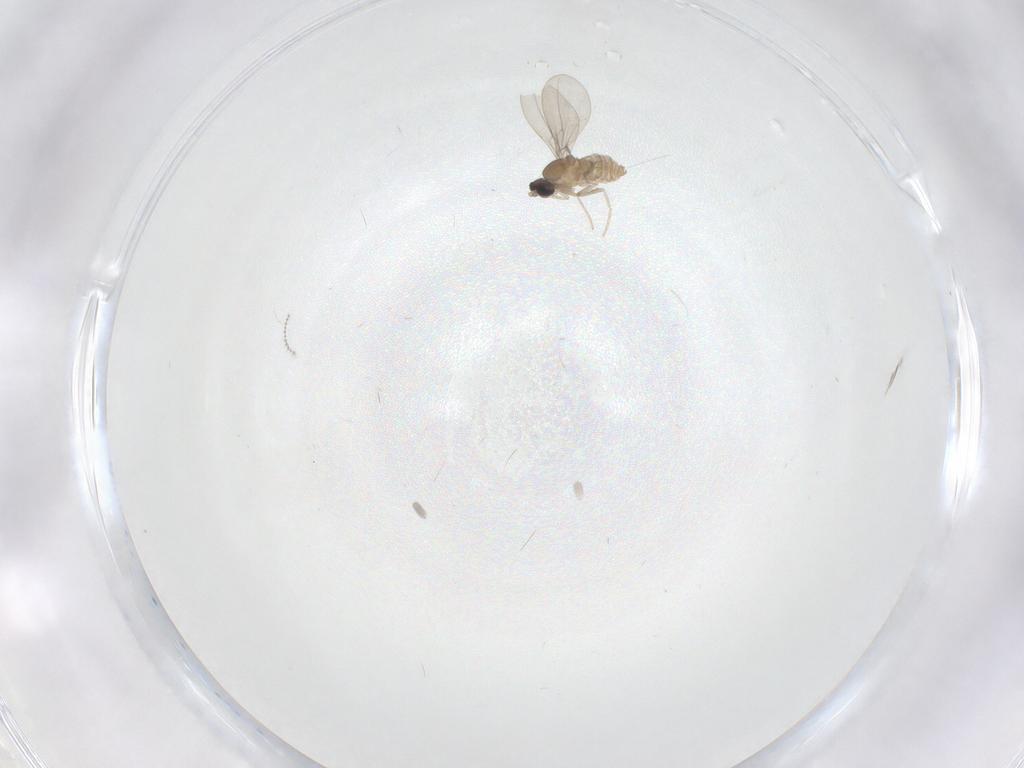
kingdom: Animalia
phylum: Arthropoda
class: Insecta
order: Diptera
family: Cecidomyiidae
